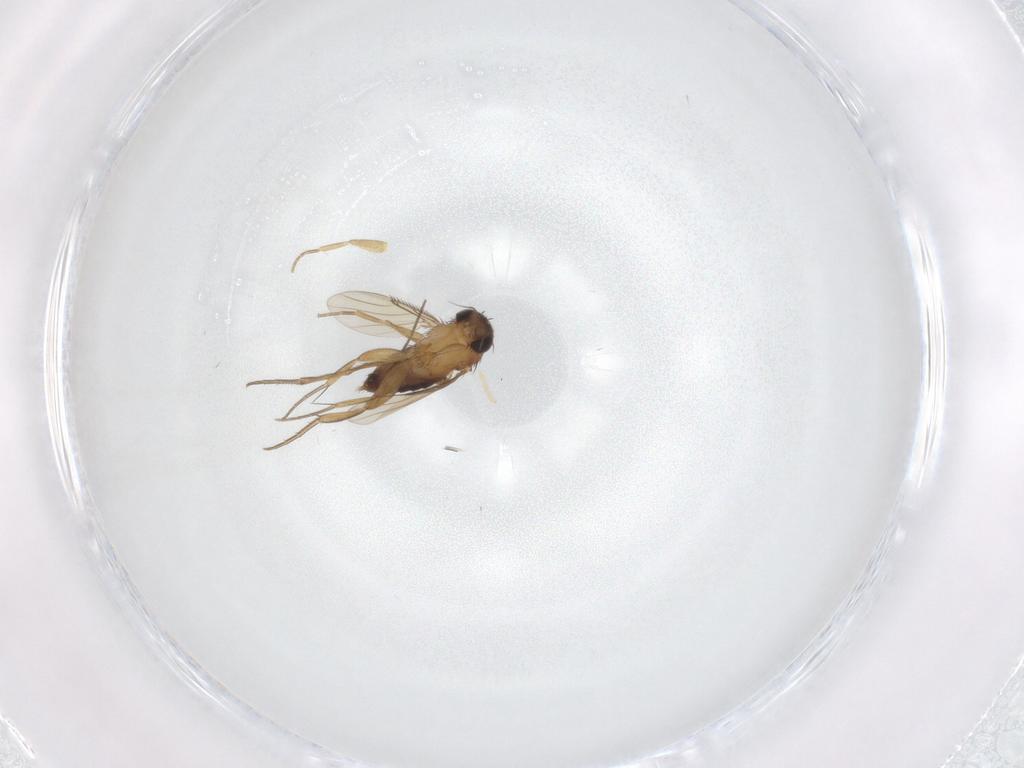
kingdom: Animalia
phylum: Arthropoda
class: Insecta
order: Diptera
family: Phoridae
